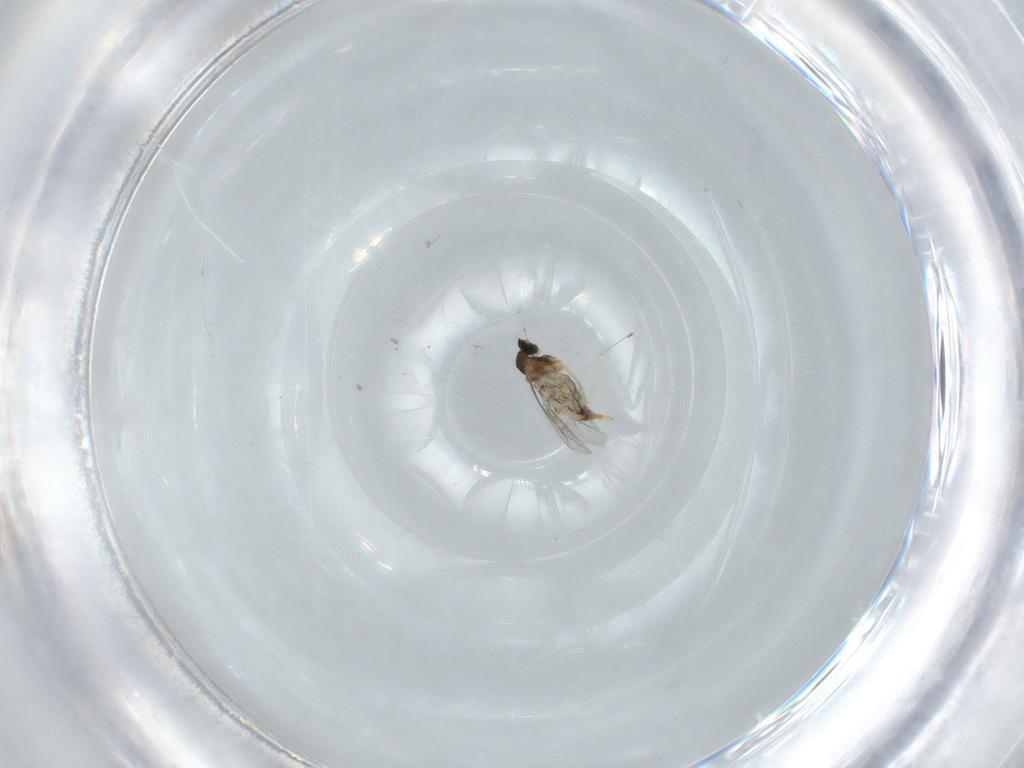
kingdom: Animalia
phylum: Arthropoda
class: Insecta
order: Diptera
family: Cecidomyiidae
